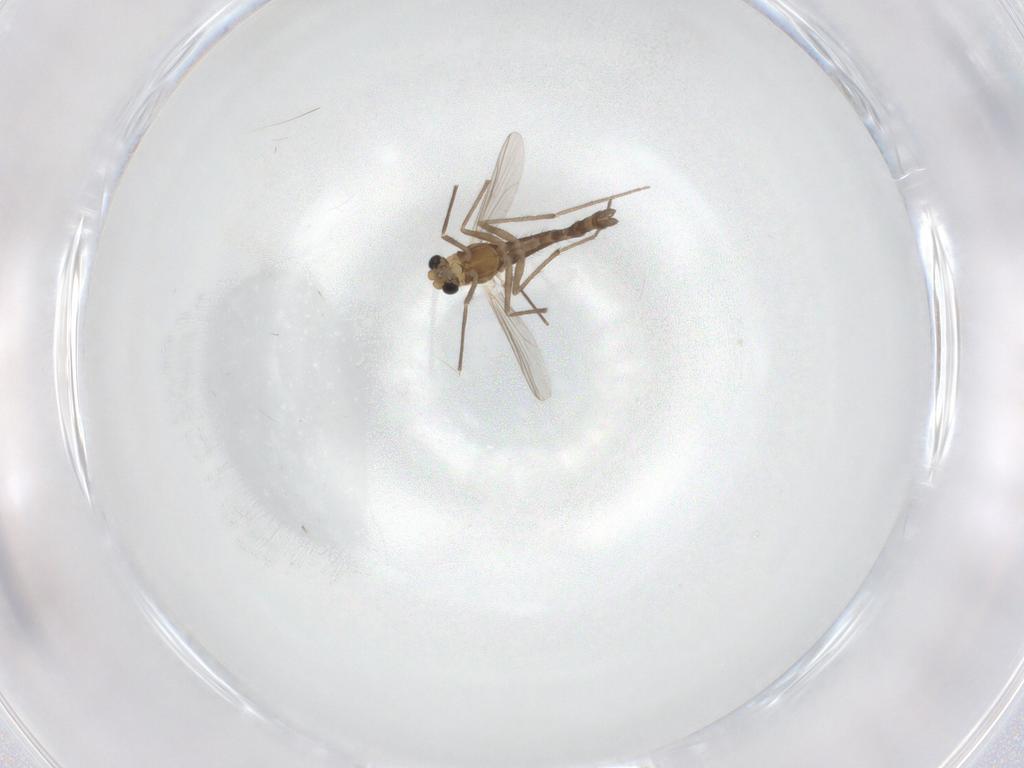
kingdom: Animalia
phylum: Arthropoda
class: Insecta
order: Diptera
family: Chironomidae
